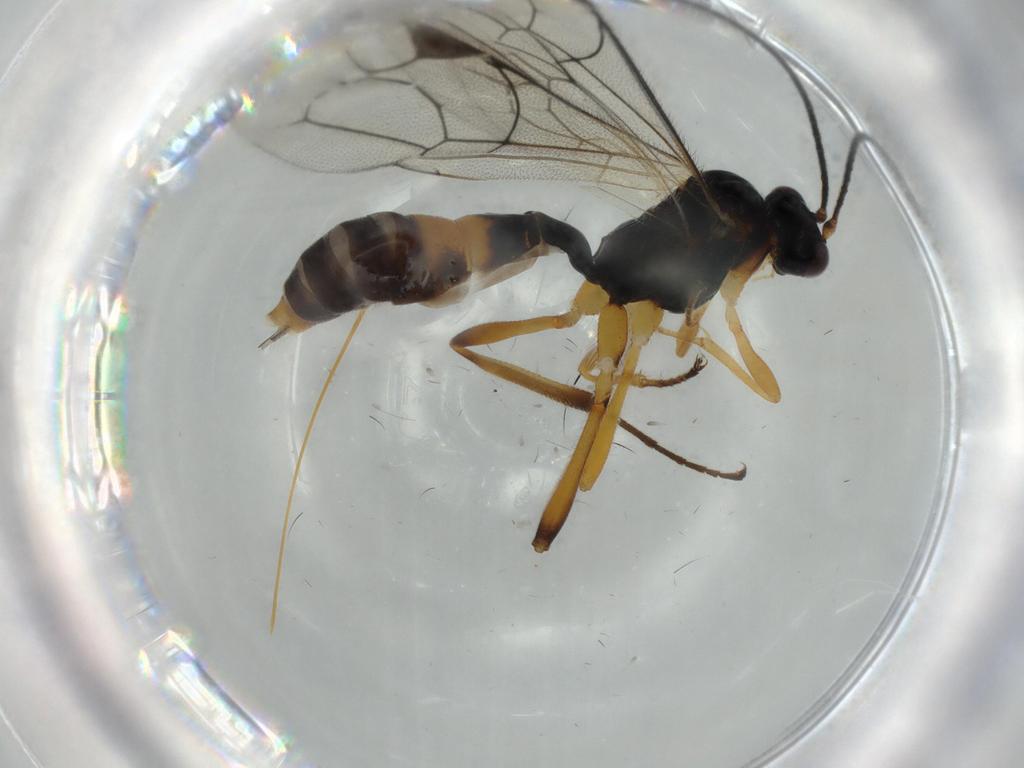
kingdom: Animalia
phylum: Arthropoda
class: Insecta
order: Hymenoptera
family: Ichneumonidae
